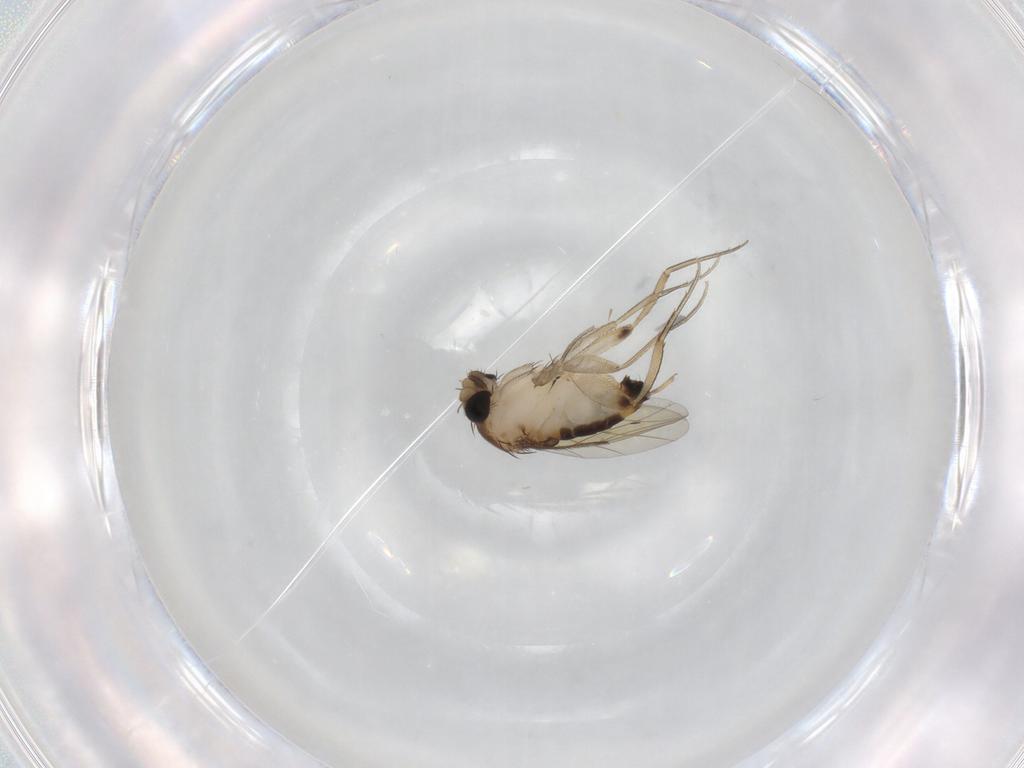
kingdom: Animalia
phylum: Arthropoda
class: Insecta
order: Diptera
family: Phoridae
